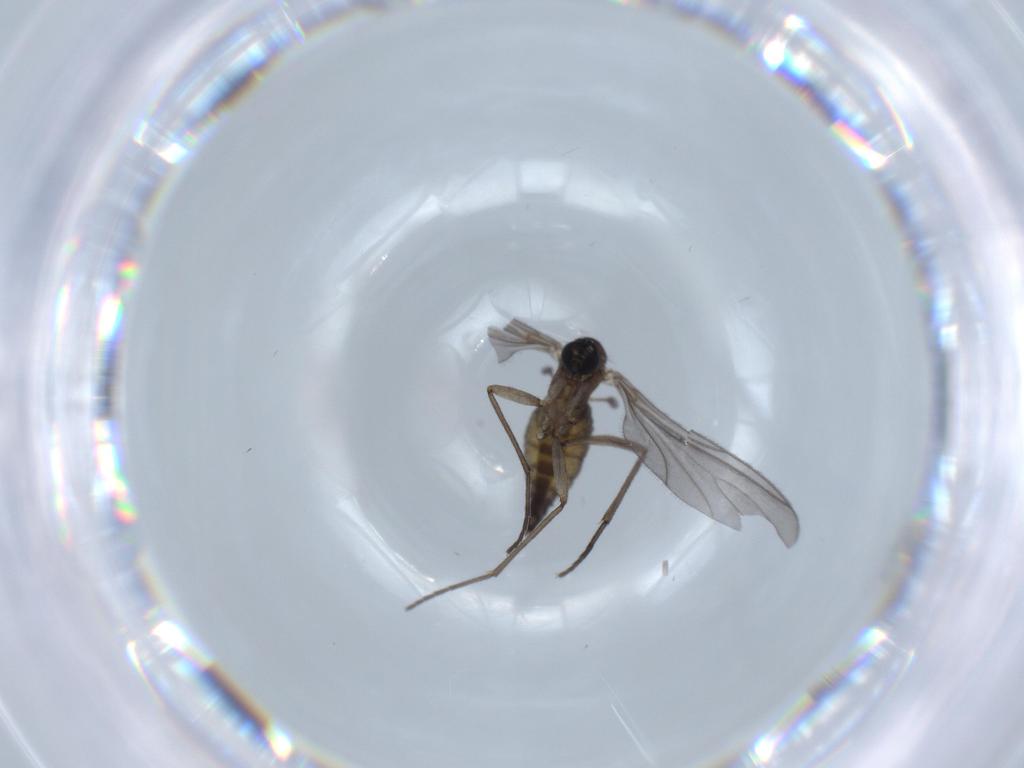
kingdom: Animalia
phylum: Arthropoda
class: Insecta
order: Diptera
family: Sciaridae
